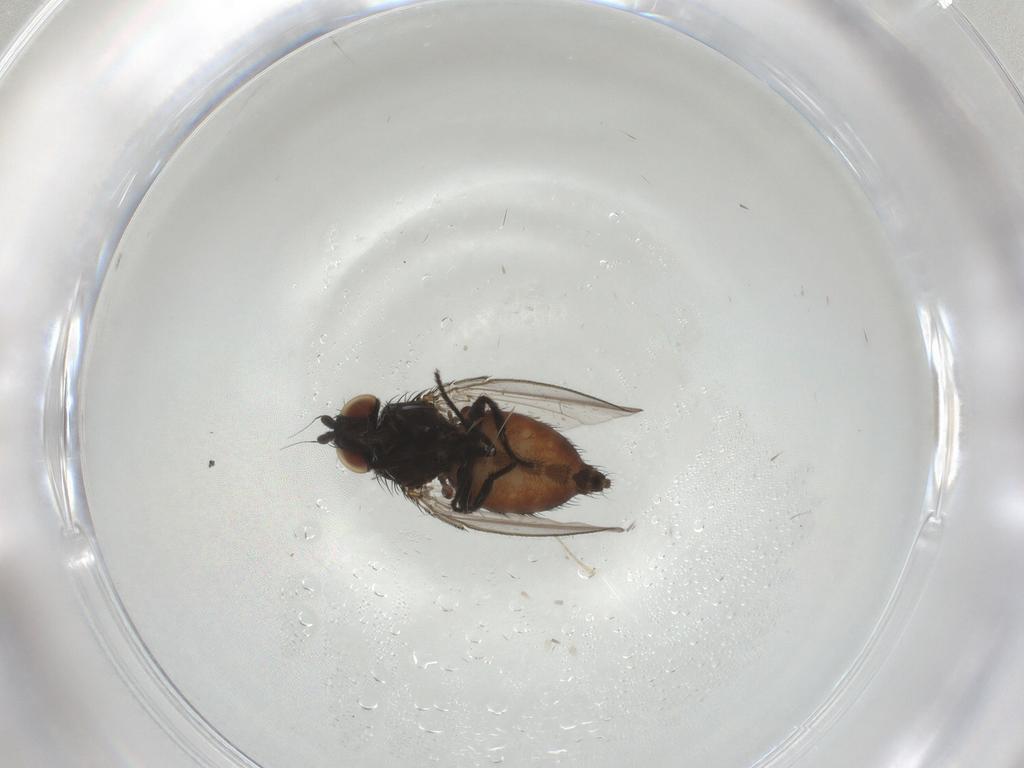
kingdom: Animalia
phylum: Arthropoda
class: Insecta
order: Diptera
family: Milichiidae
